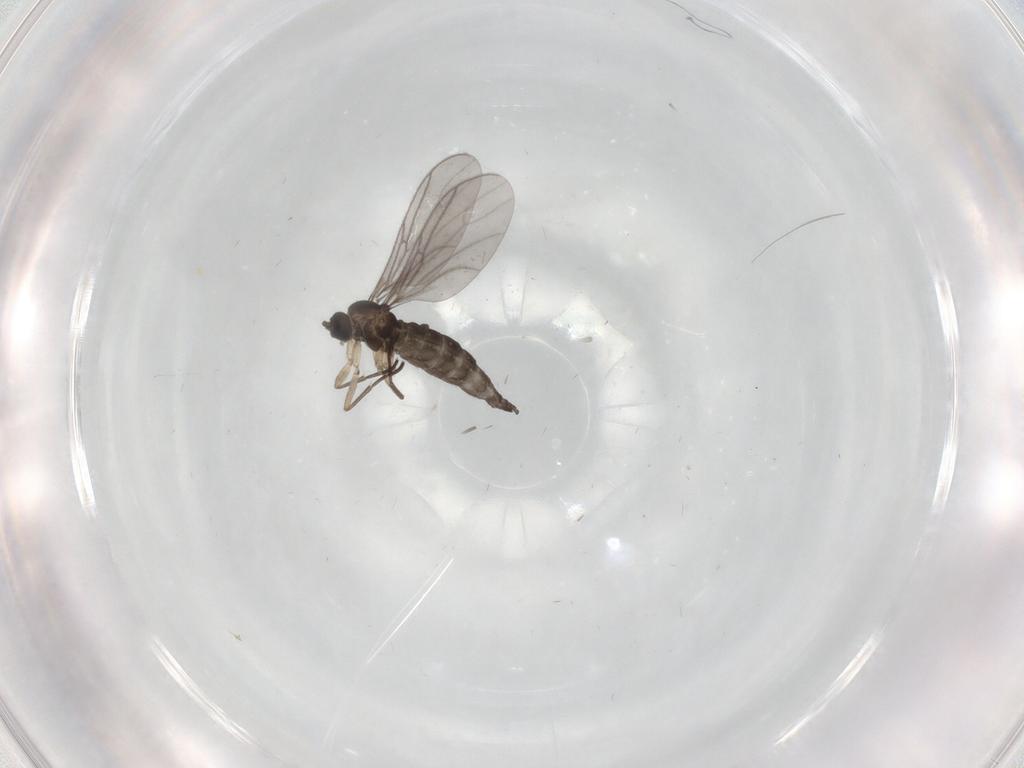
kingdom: Animalia
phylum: Arthropoda
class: Insecta
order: Diptera
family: Sciaridae
